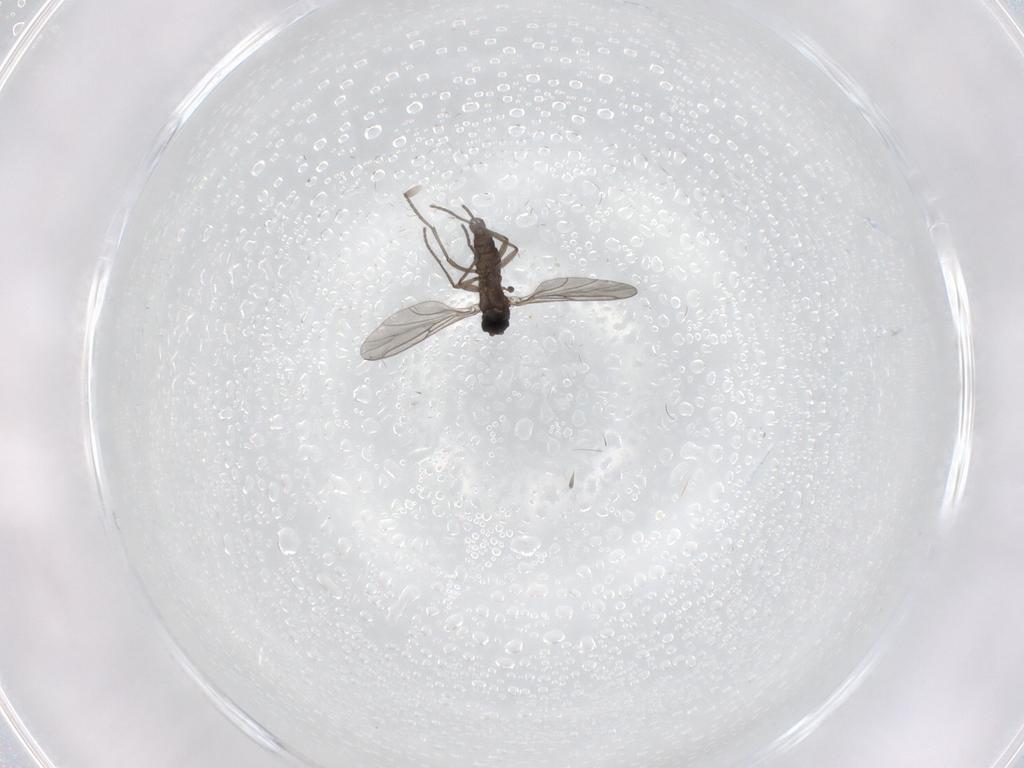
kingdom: Animalia
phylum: Arthropoda
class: Insecta
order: Diptera
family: Sciaridae
